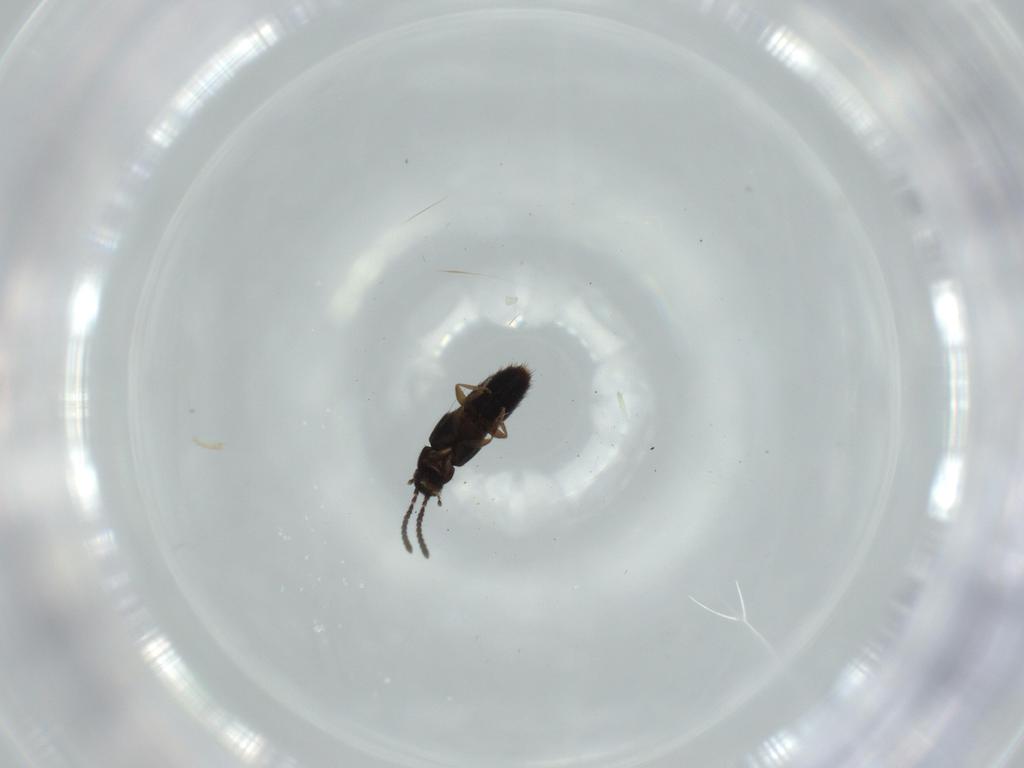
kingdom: Animalia
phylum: Arthropoda
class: Insecta
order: Coleoptera
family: Staphylinidae
